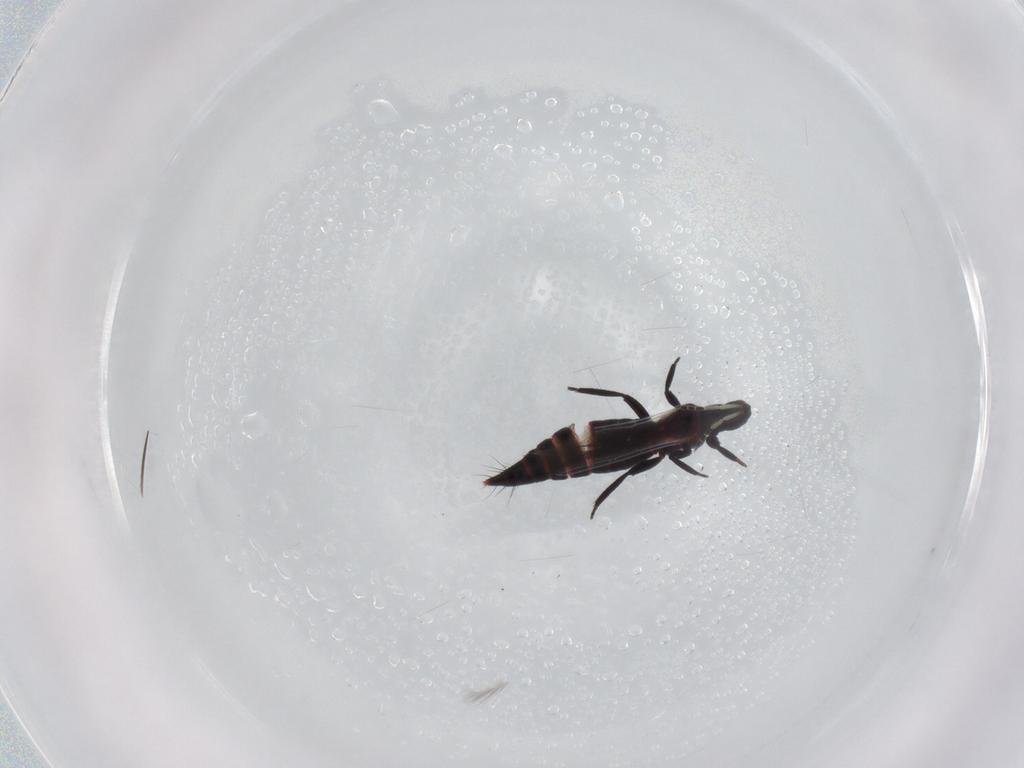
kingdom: Animalia
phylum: Arthropoda
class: Insecta
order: Thysanoptera
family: Thripidae
